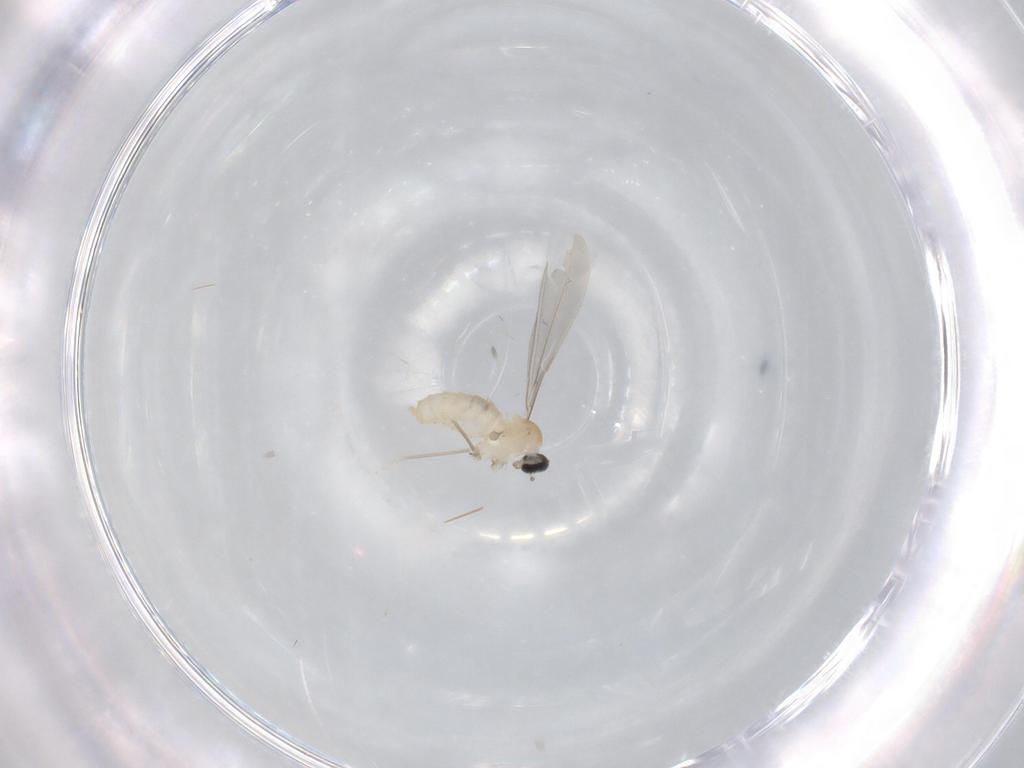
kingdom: Animalia
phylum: Arthropoda
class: Insecta
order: Diptera
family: Cecidomyiidae
